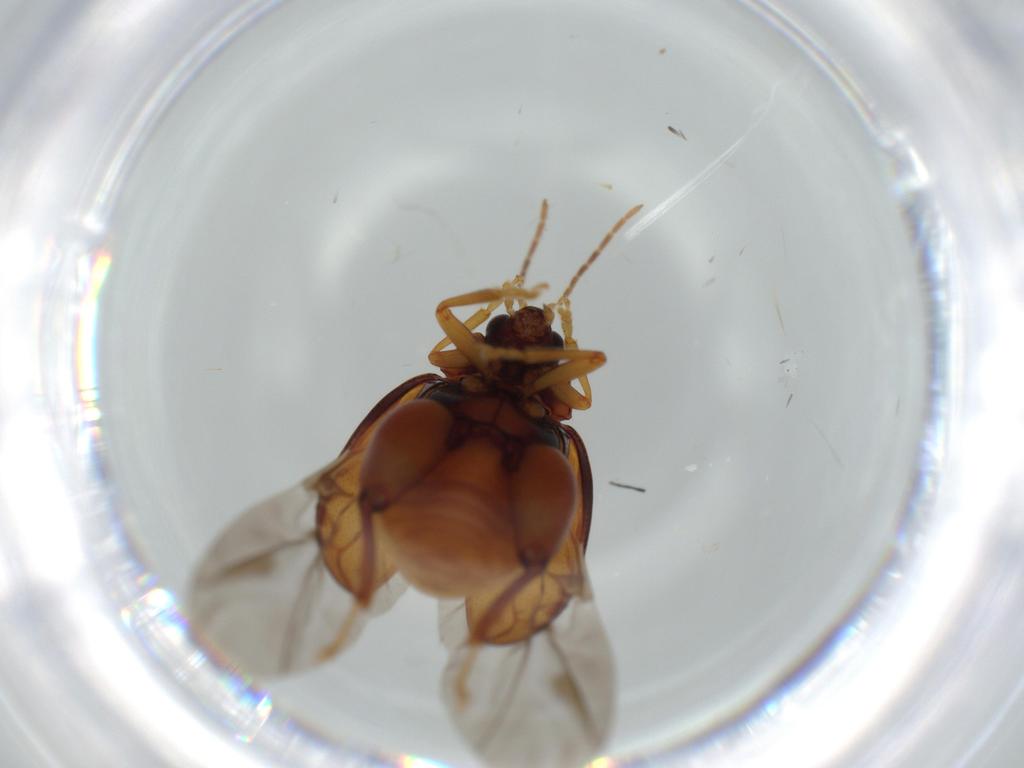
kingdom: Animalia
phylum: Arthropoda
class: Insecta
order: Coleoptera
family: Chrysomelidae
